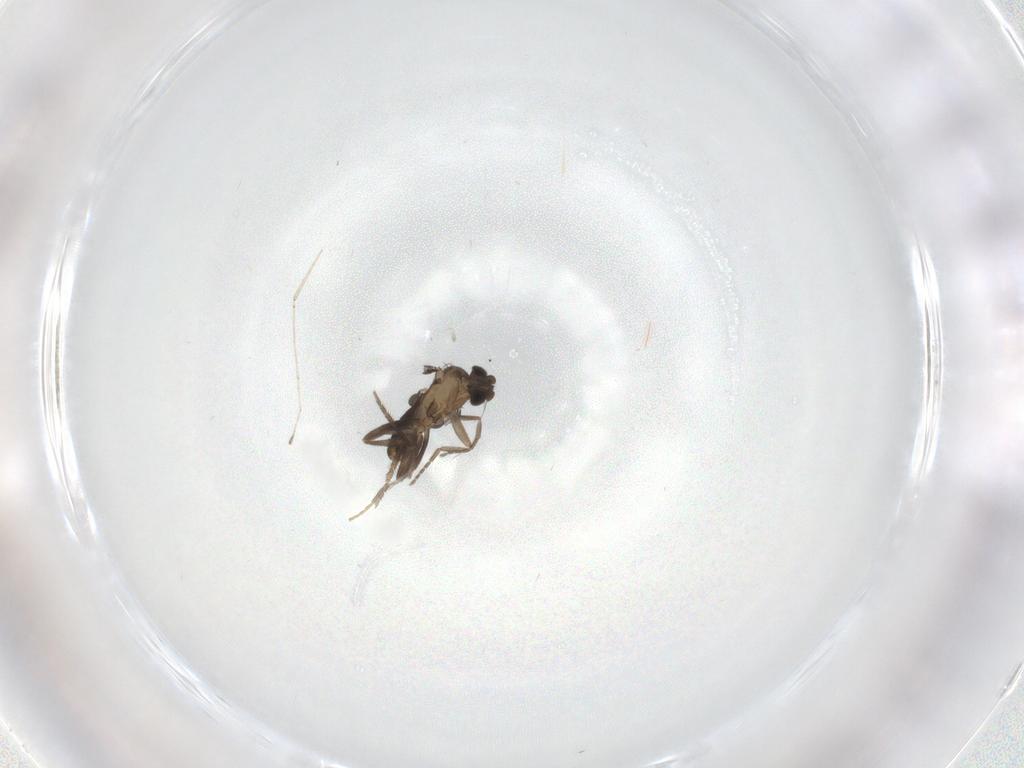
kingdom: Animalia
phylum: Arthropoda
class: Insecta
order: Diptera
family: Phoridae
